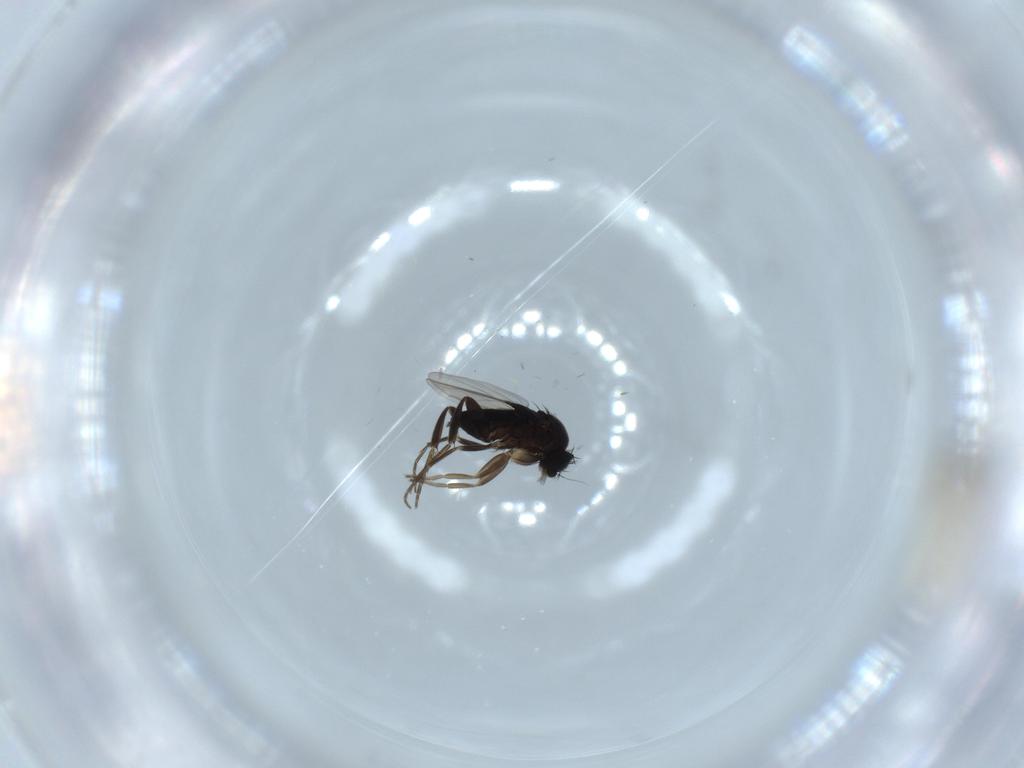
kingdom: Animalia
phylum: Arthropoda
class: Insecta
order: Diptera
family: Phoridae
